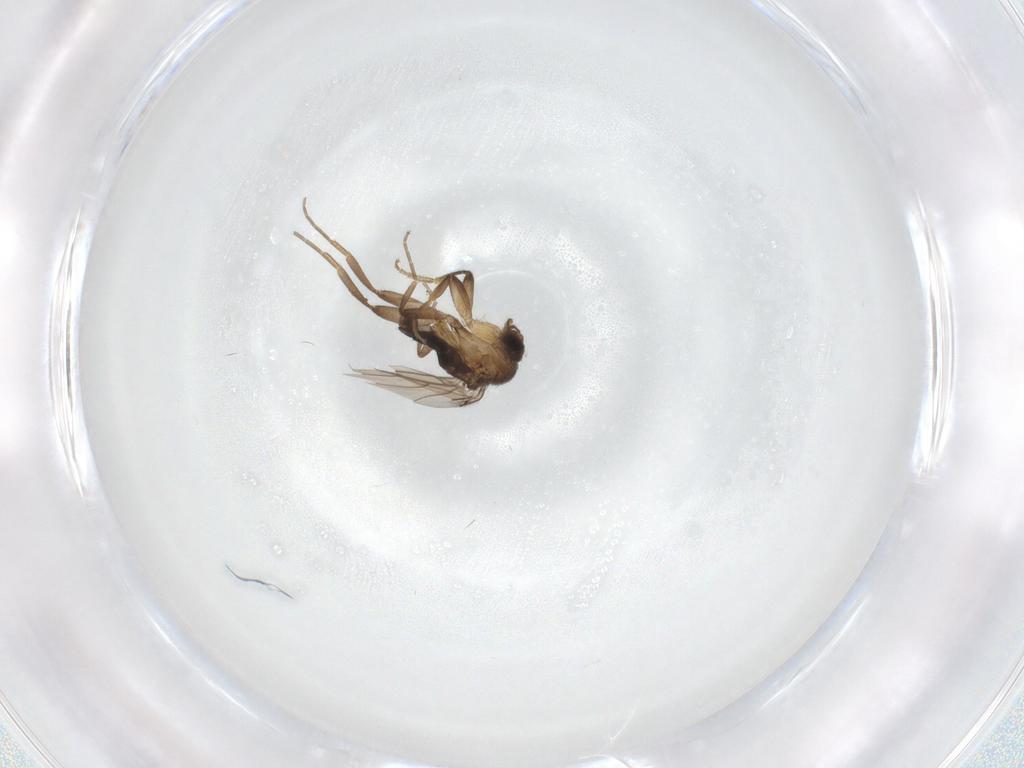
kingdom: Animalia
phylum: Arthropoda
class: Insecta
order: Diptera
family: Phoridae
